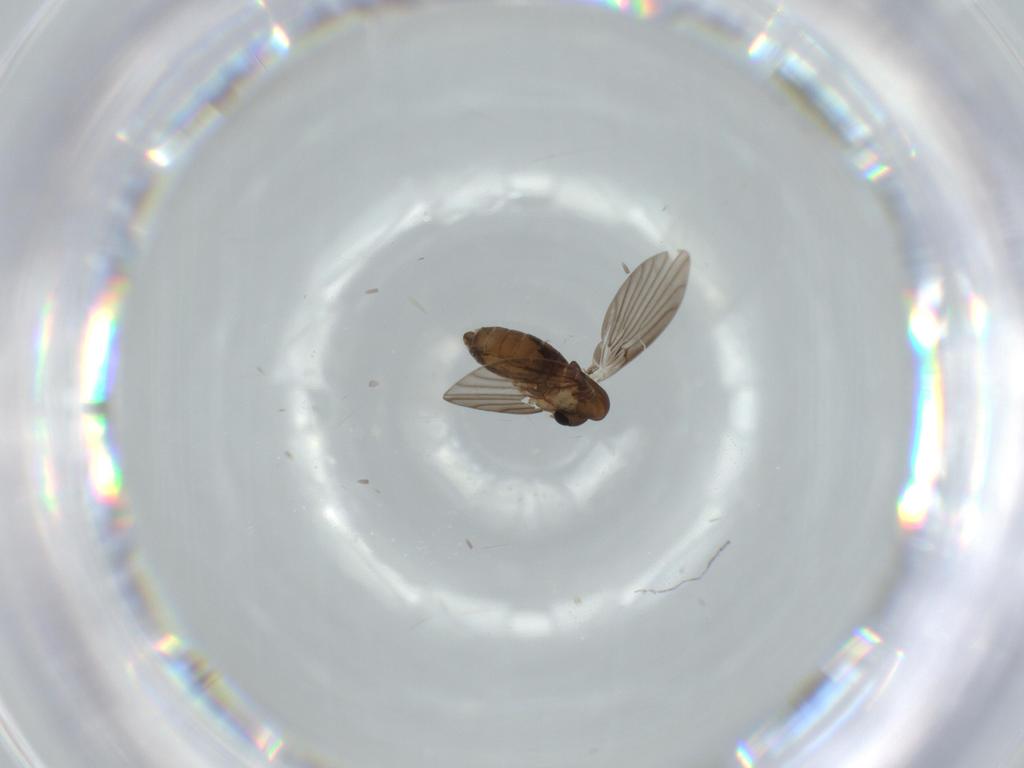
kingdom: Animalia
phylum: Arthropoda
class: Insecta
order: Diptera
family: Psychodidae
